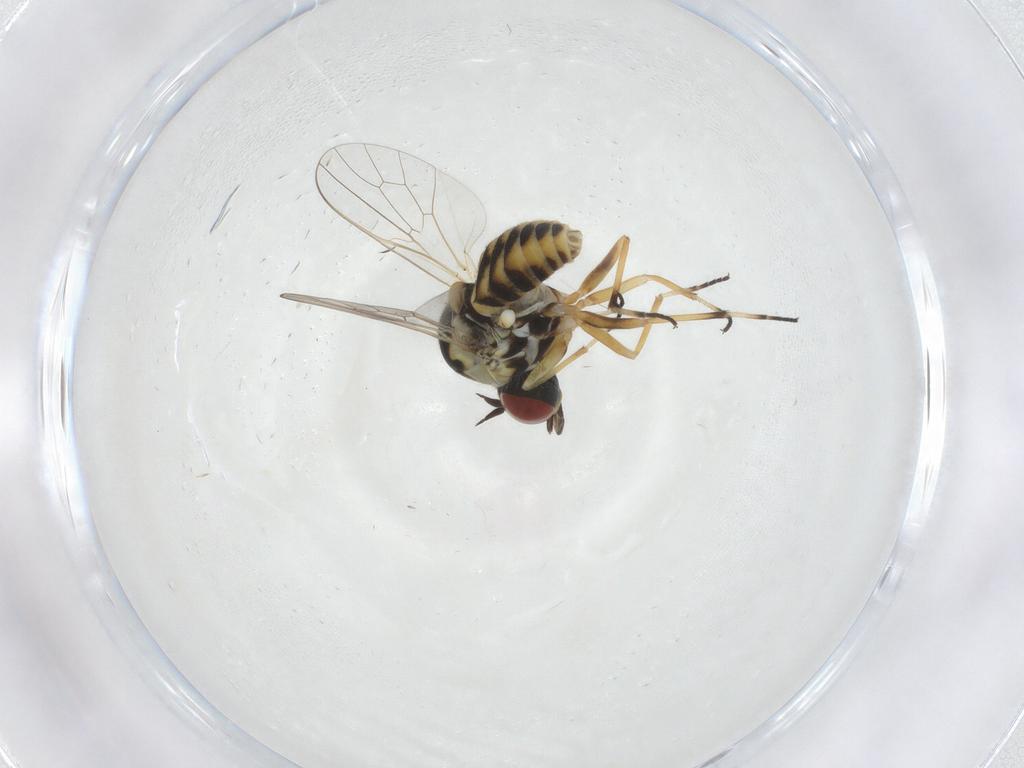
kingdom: Animalia
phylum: Arthropoda
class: Insecta
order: Diptera
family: Mythicomyiidae
